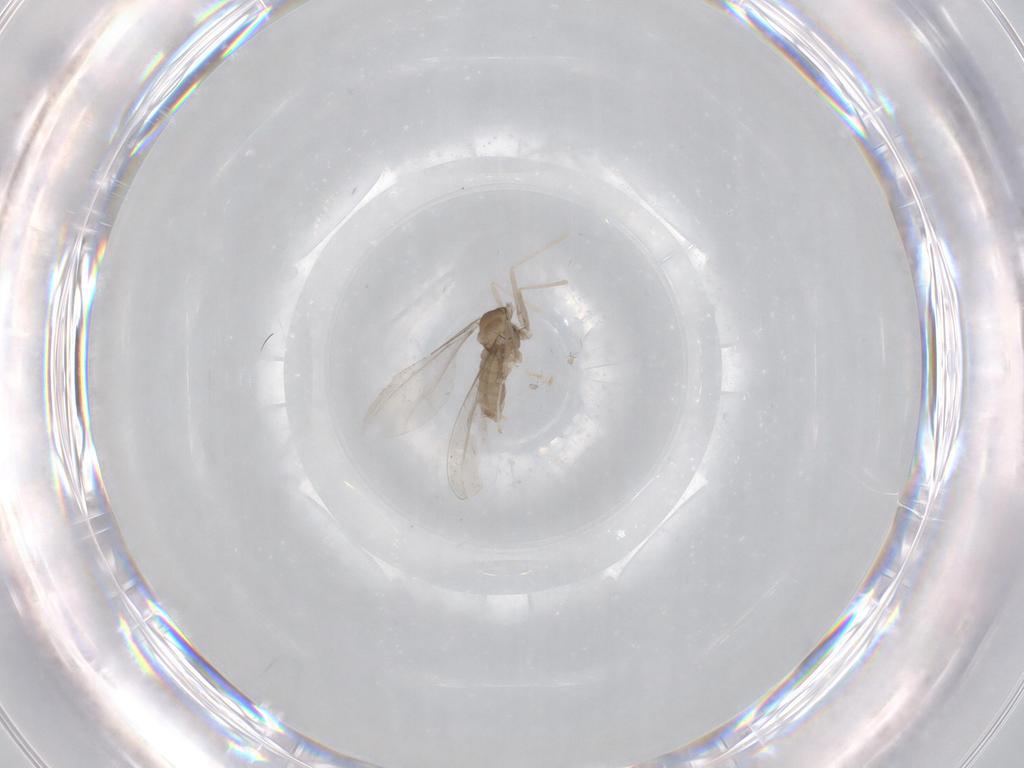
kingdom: Animalia
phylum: Arthropoda
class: Insecta
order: Diptera
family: Cecidomyiidae
